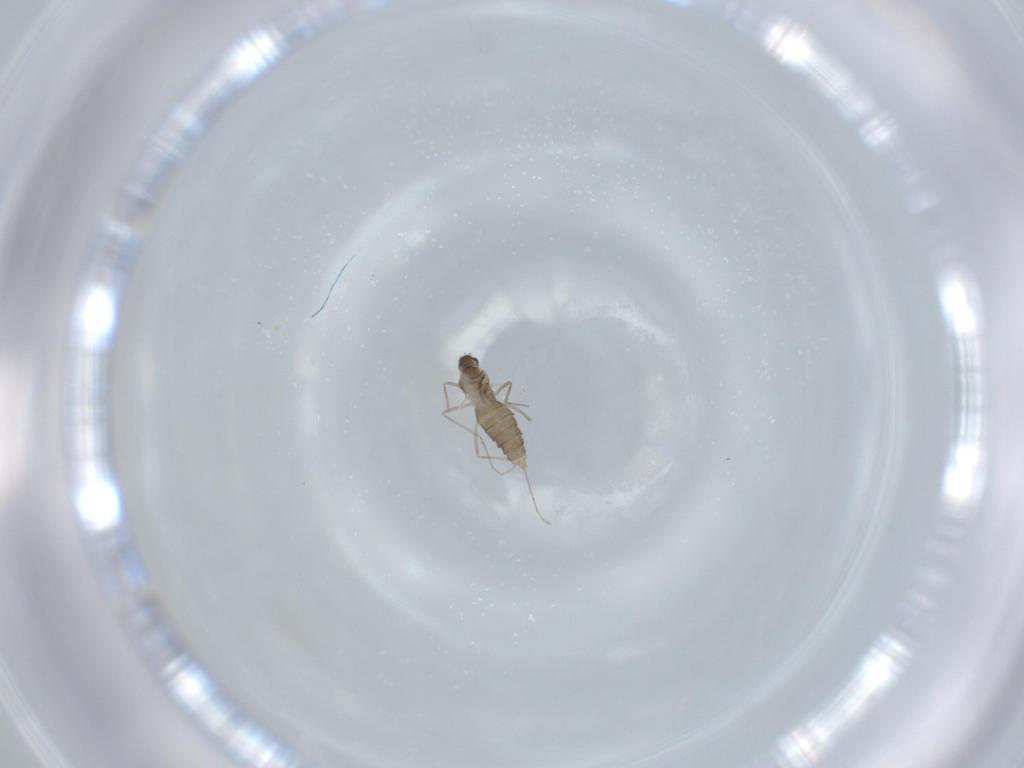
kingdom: Animalia
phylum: Arthropoda
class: Insecta
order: Diptera
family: Cecidomyiidae
